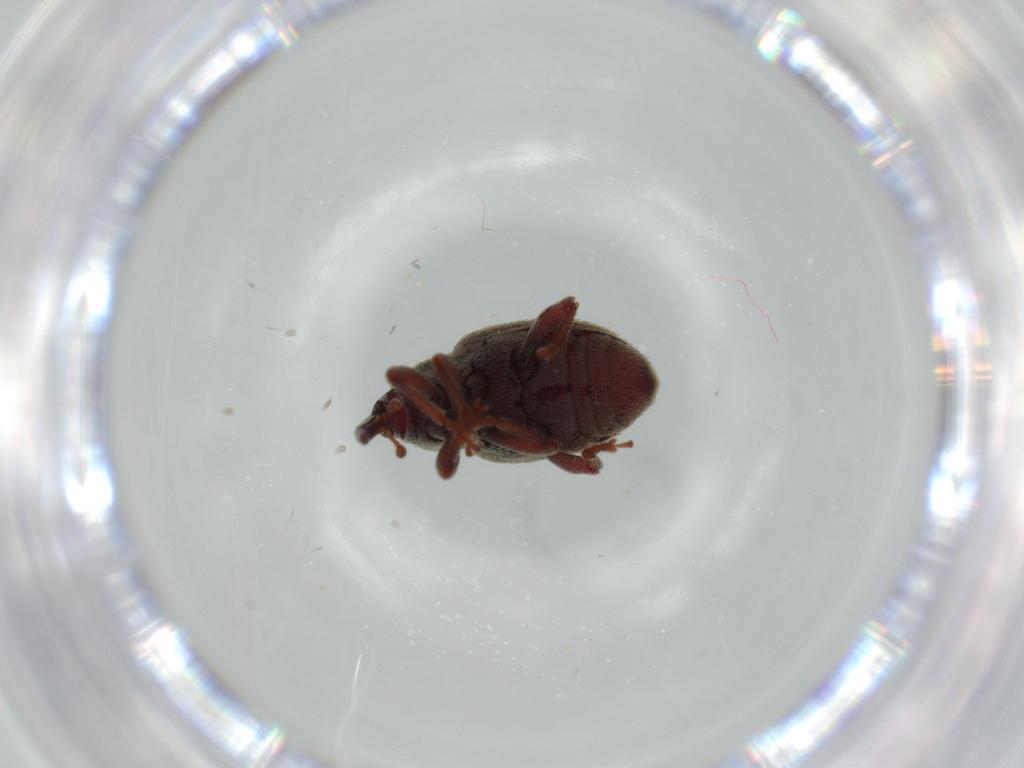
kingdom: Animalia
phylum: Arthropoda
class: Insecta
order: Coleoptera
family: Curculionidae
